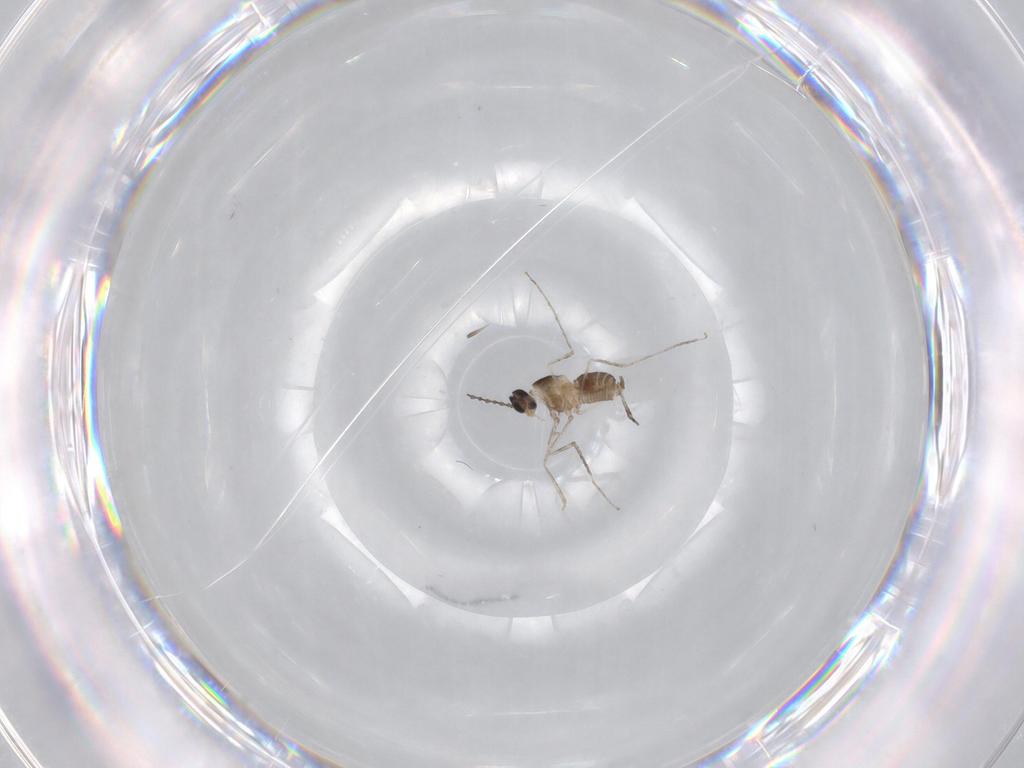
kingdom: Animalia
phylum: Arthropoda
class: Insecta
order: Diptera
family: Cecidomyiidae
